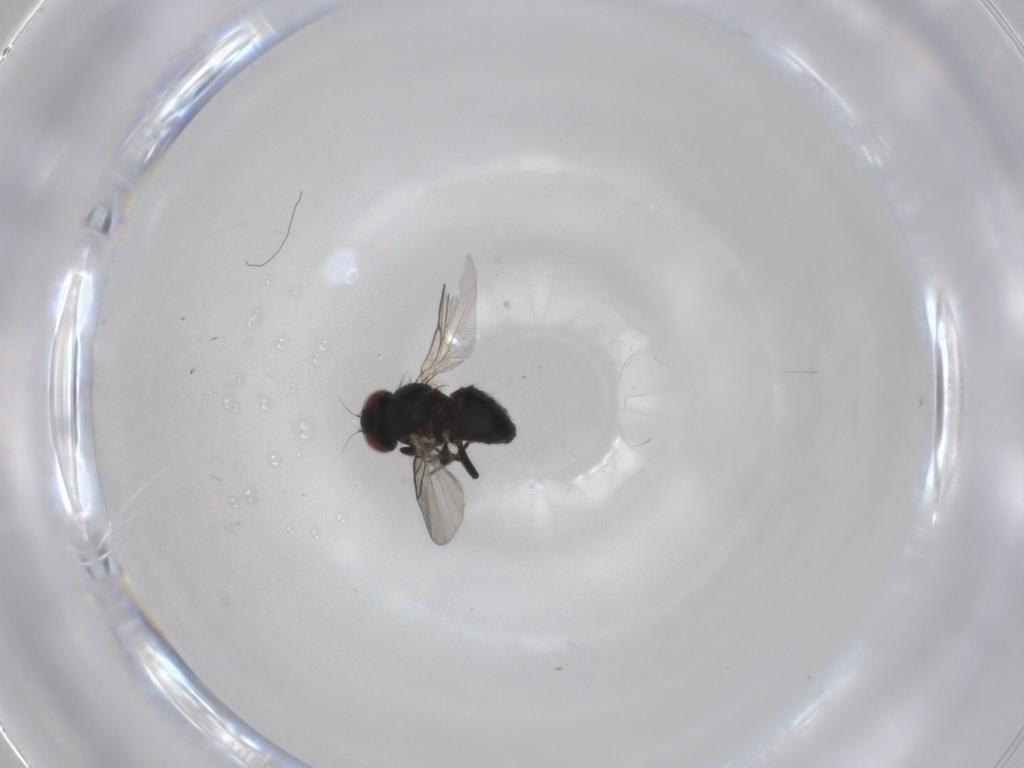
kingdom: Animalia
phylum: Arthropoda
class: Insecta
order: Diptera
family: Ceratopogonidae
